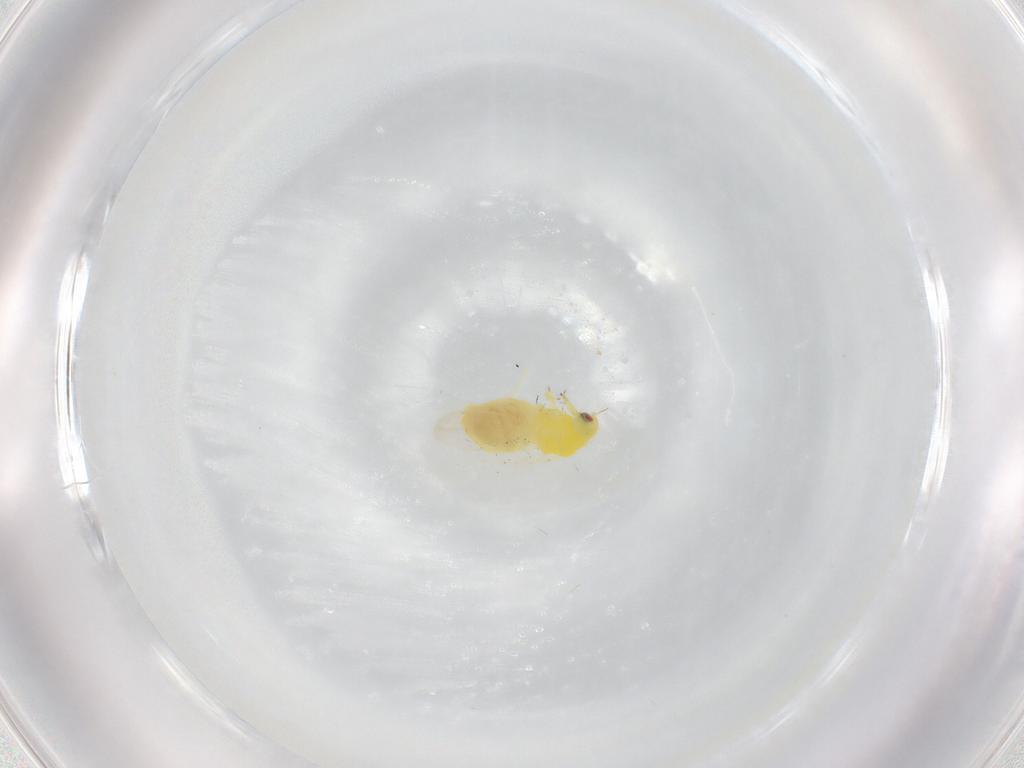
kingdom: Animalia
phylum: Arthropoda
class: Insecta
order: Hemiptera
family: Cicadellidae
